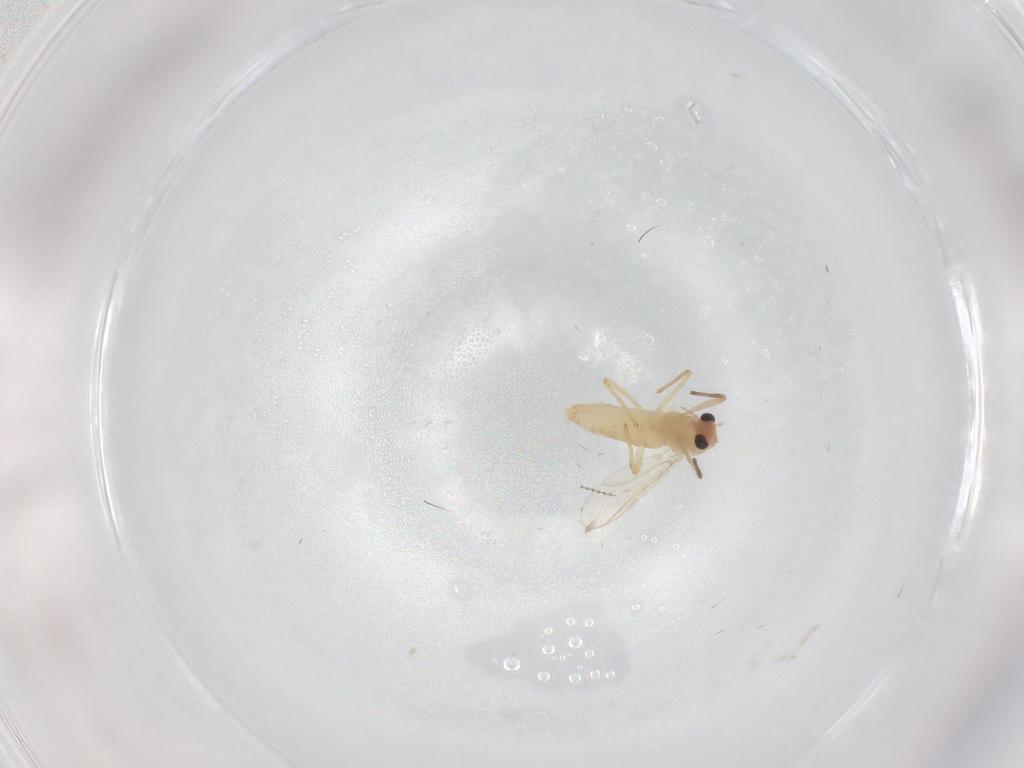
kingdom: Animalia
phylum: Arthropoda
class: Insecta
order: Diptera
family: Chironomidae
